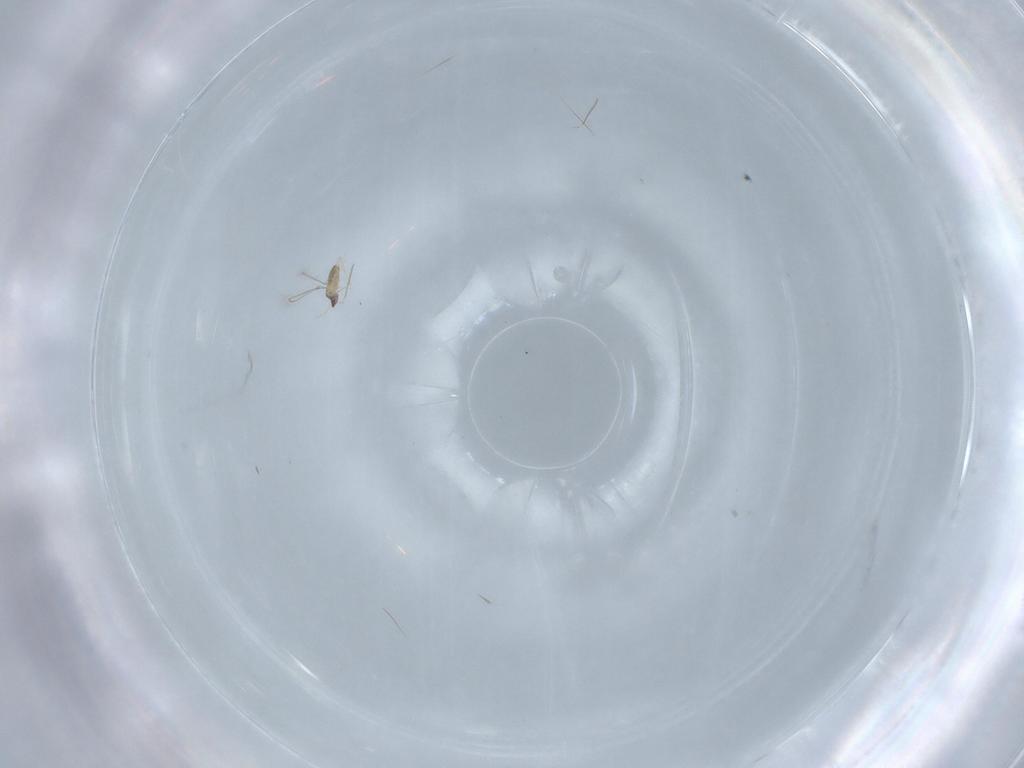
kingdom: Animalia
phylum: Arthropoda
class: Insecta
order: Hymenoptera
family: Trichogrammatidae
